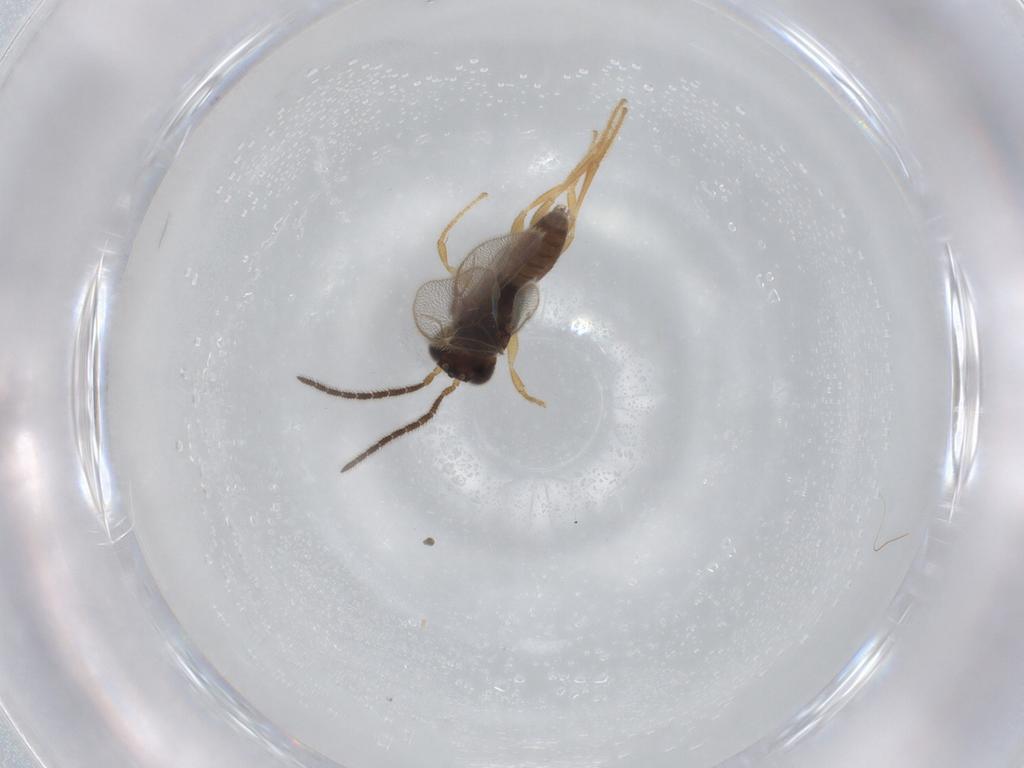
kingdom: Animalia
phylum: Arthropoda
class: Insecta
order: Hymenoptera
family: Dryinidae
